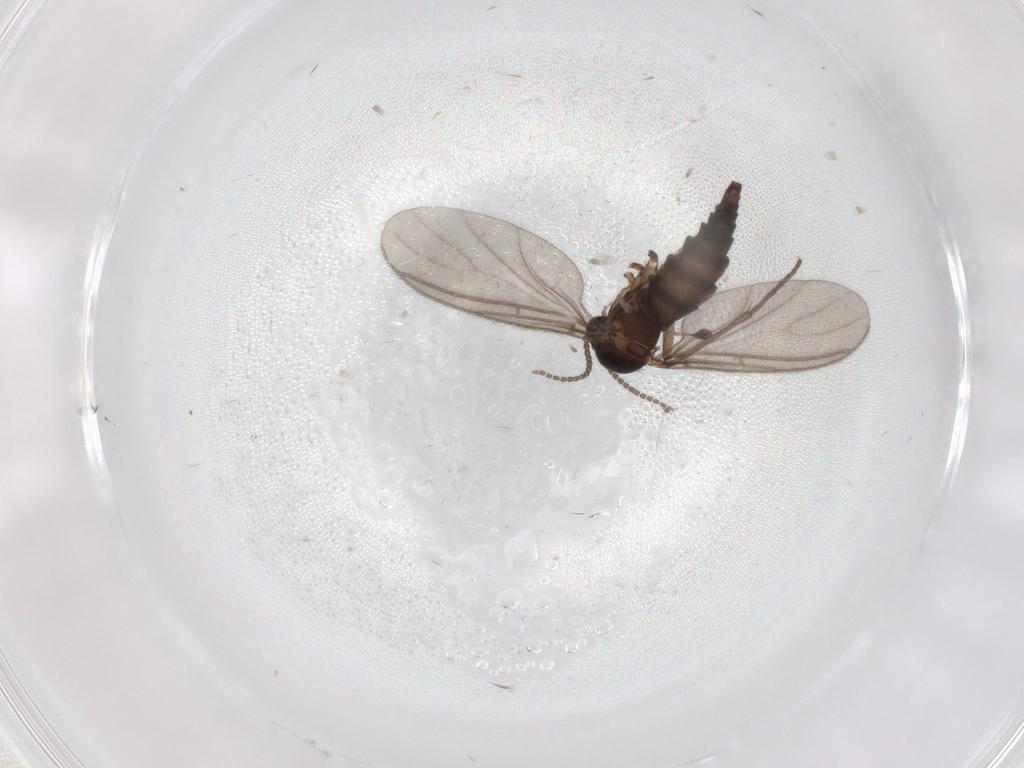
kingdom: Animalia
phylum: Arthropoda
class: Insecta
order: Diptera
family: Sciaridae
